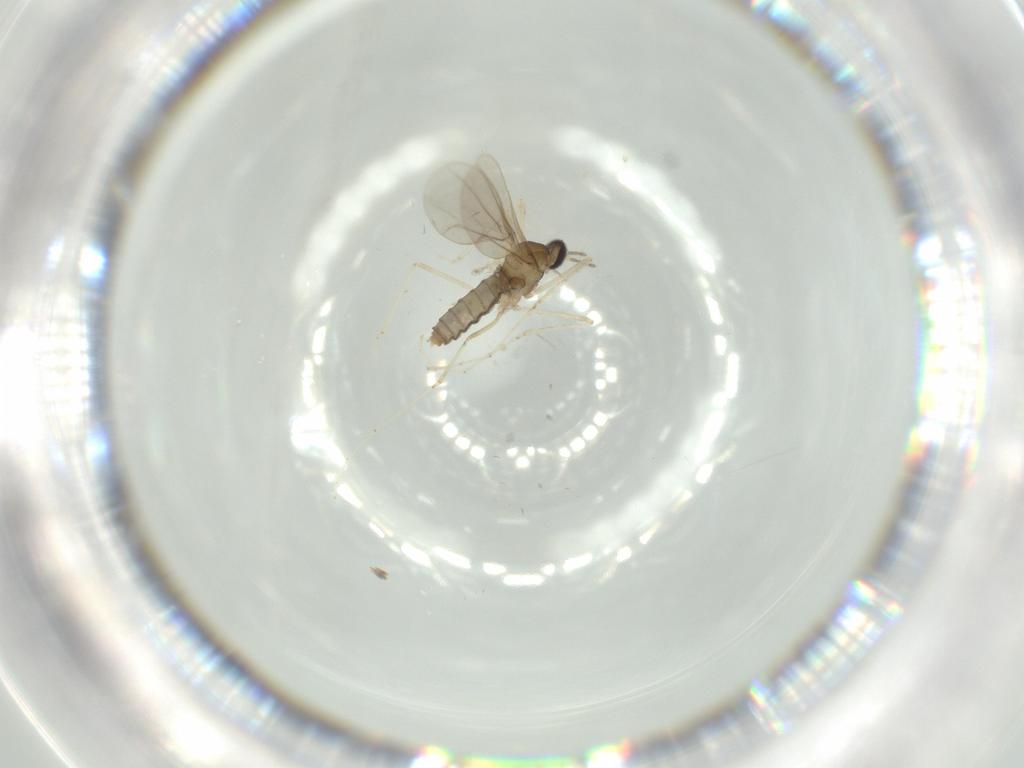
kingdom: Animalia
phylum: Arthropoda
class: Insecta
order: Diptera
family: Cecidomyiidae
